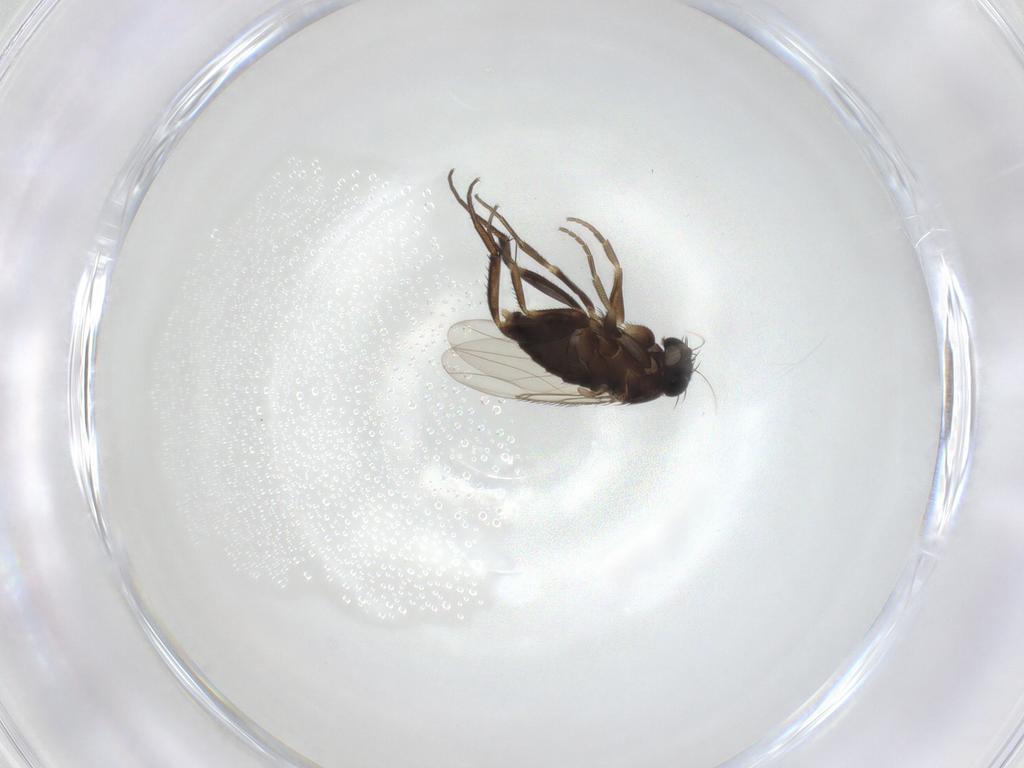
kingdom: Animalia
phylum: Arthropoda
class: Insecta
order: Diptera
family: Phoridae
